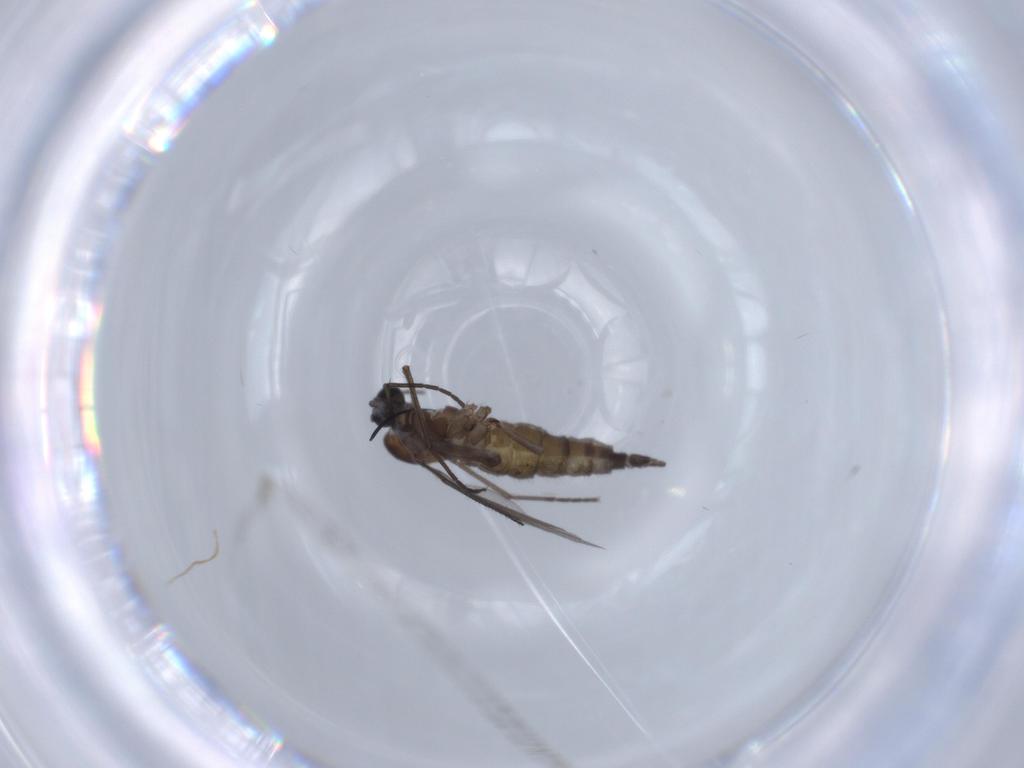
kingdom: Animalia
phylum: Arthropoda
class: Insecta
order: Diptera
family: Sciaridae
